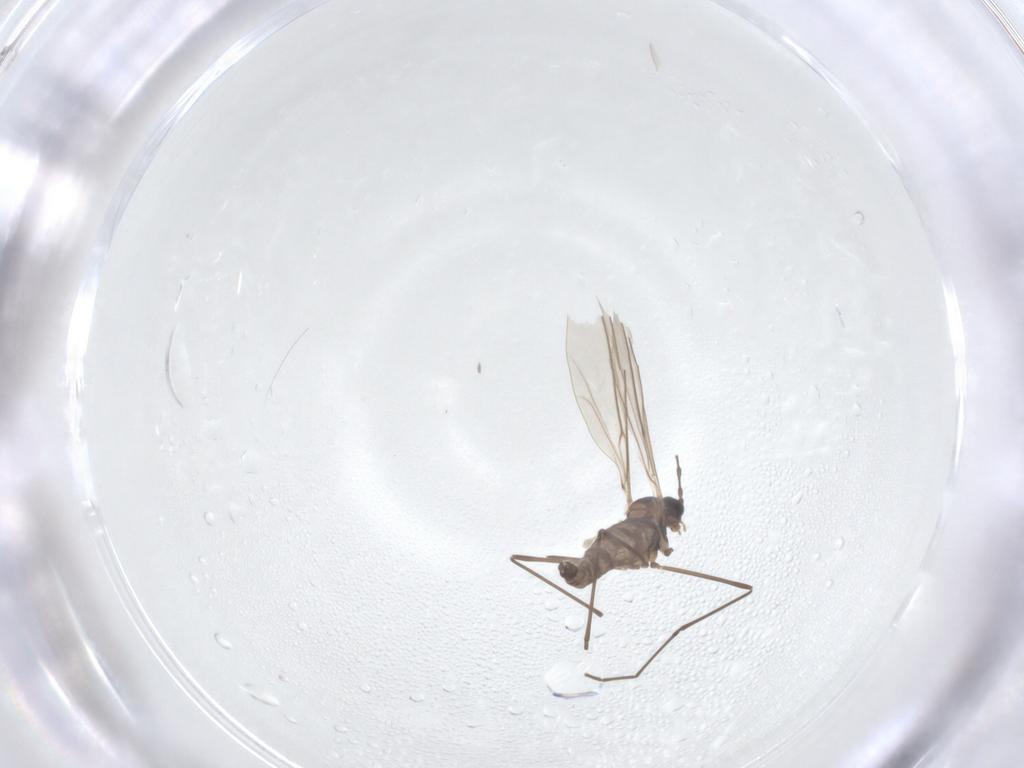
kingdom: Animalia
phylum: Arthropoda
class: Insecta
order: Diptera
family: Cecidomyiidae
